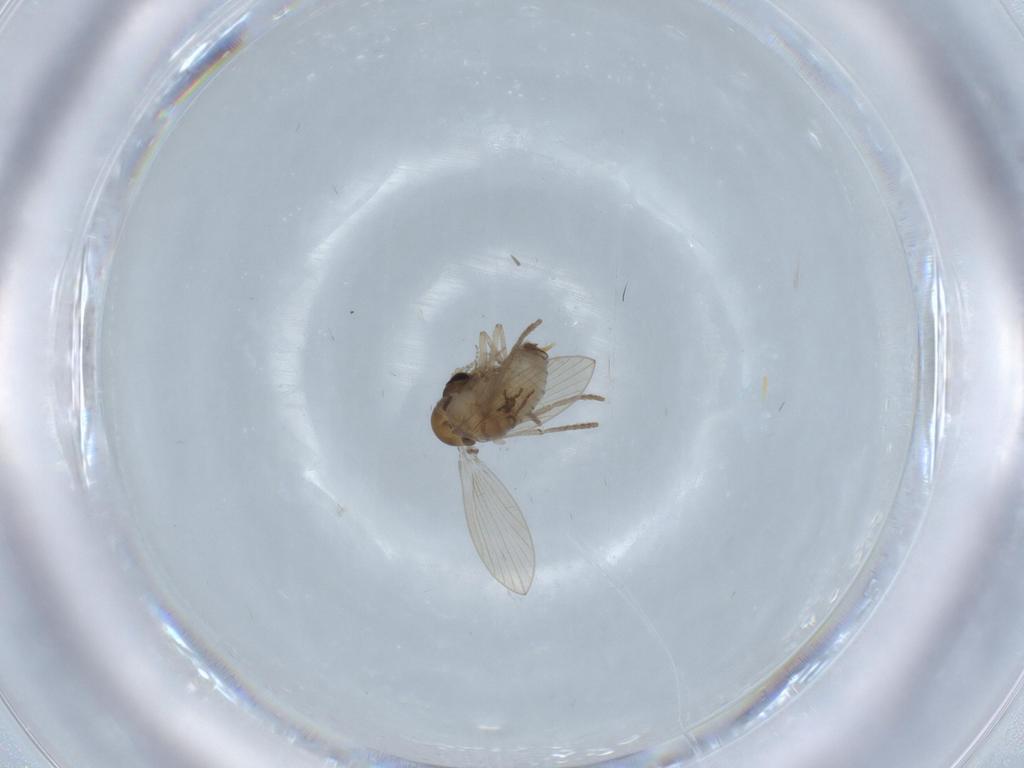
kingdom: Animalia
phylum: Arthropoda
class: Insecta
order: Diptera
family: Psychodidae
